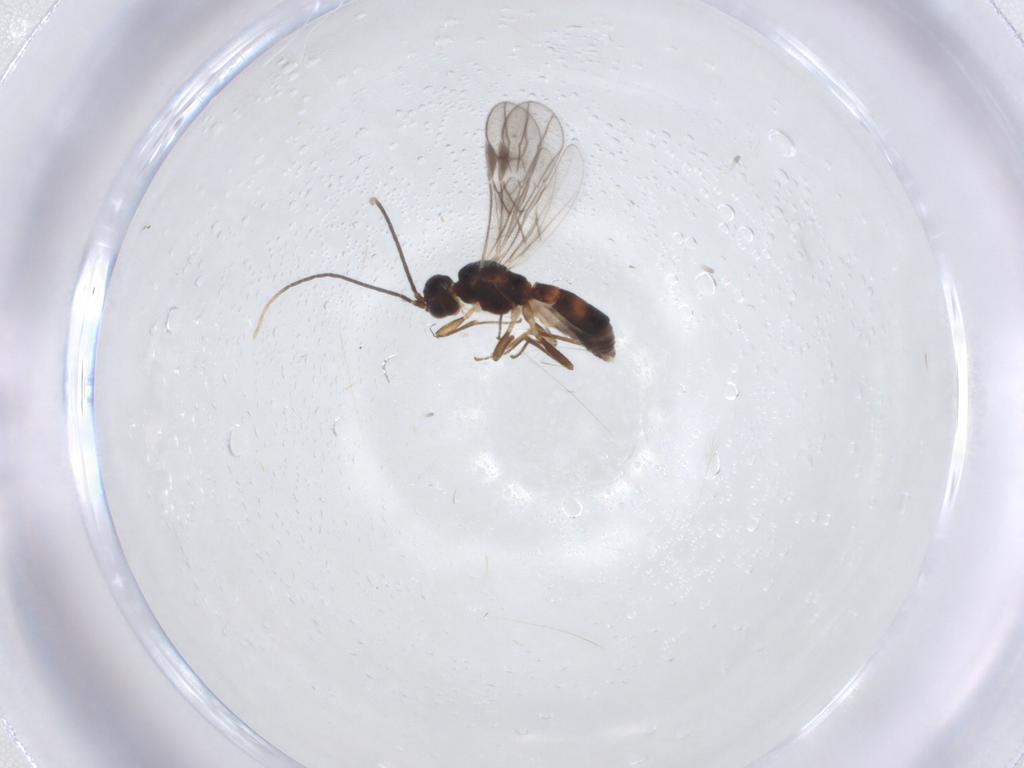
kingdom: Animalia
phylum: Arthropoda
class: Insecta
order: Hymenoptera
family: Braconidae
